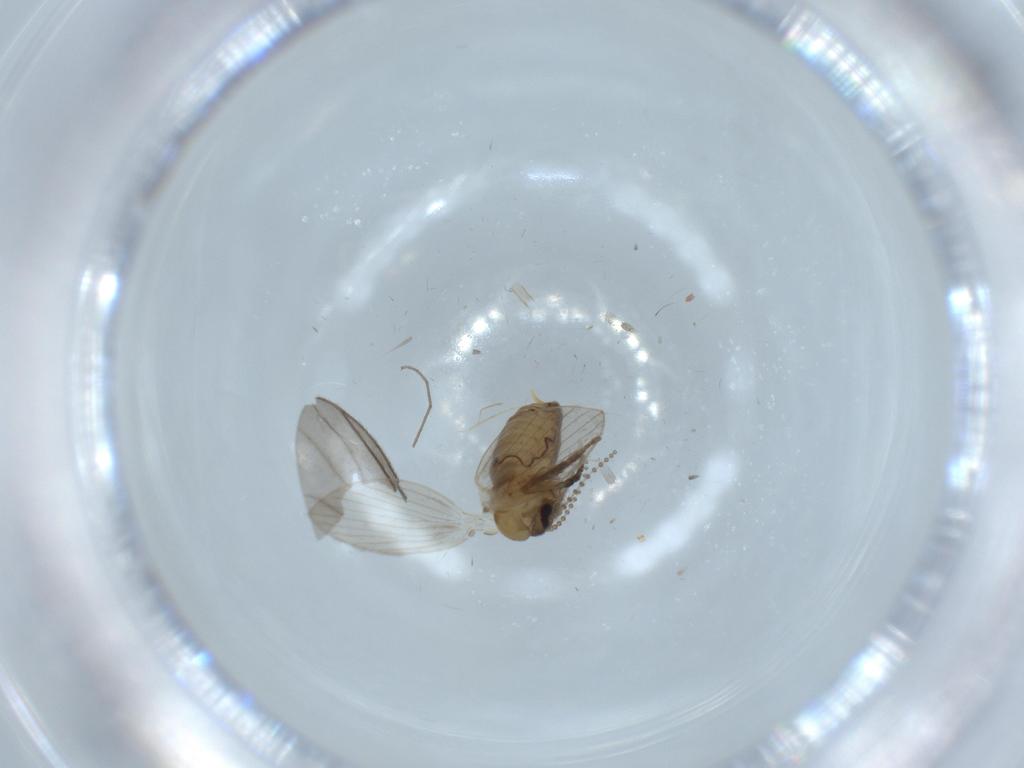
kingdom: Animalia
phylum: Arthropoda
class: Insecta
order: Diptera
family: Psychodidae
